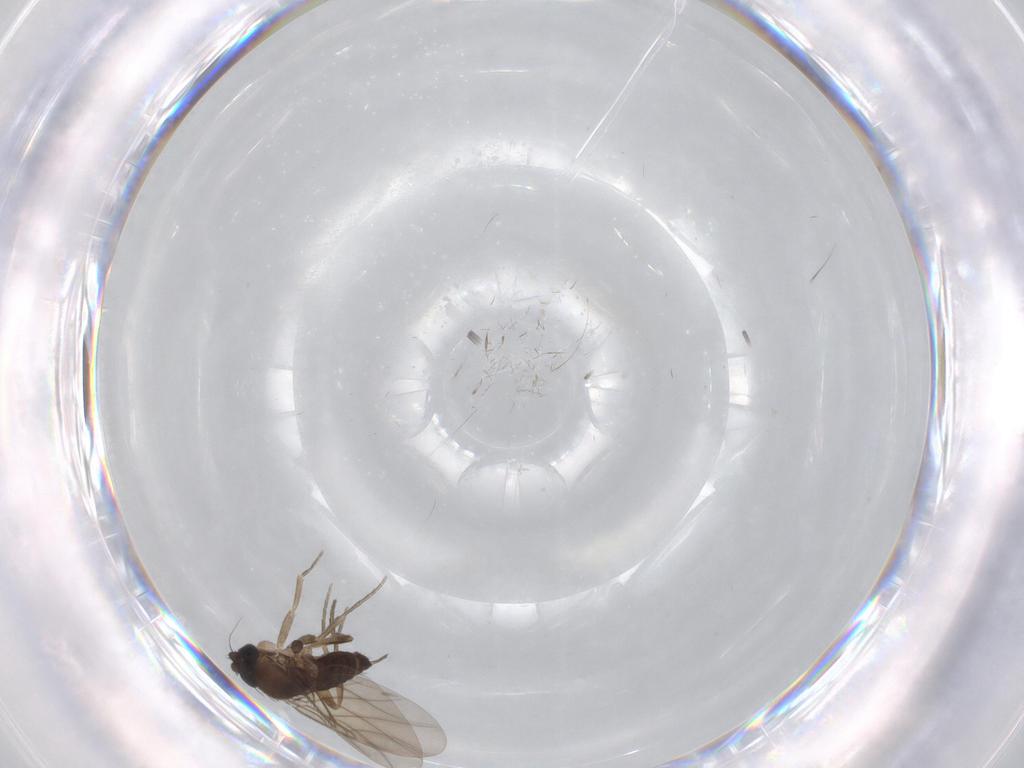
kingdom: Animalia
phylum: Arthropoda
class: Insecta
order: Diptera
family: Phoridae
